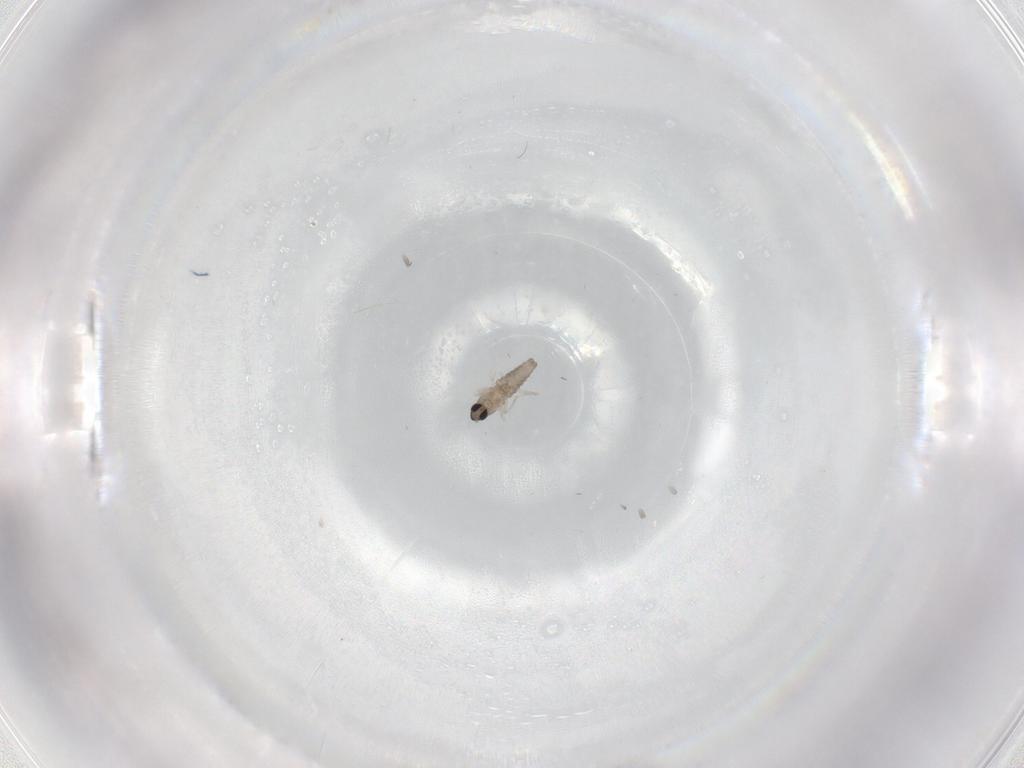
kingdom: Animalia
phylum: Arthropoda
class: Insecta
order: Diptera
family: Cecidomyiidae
